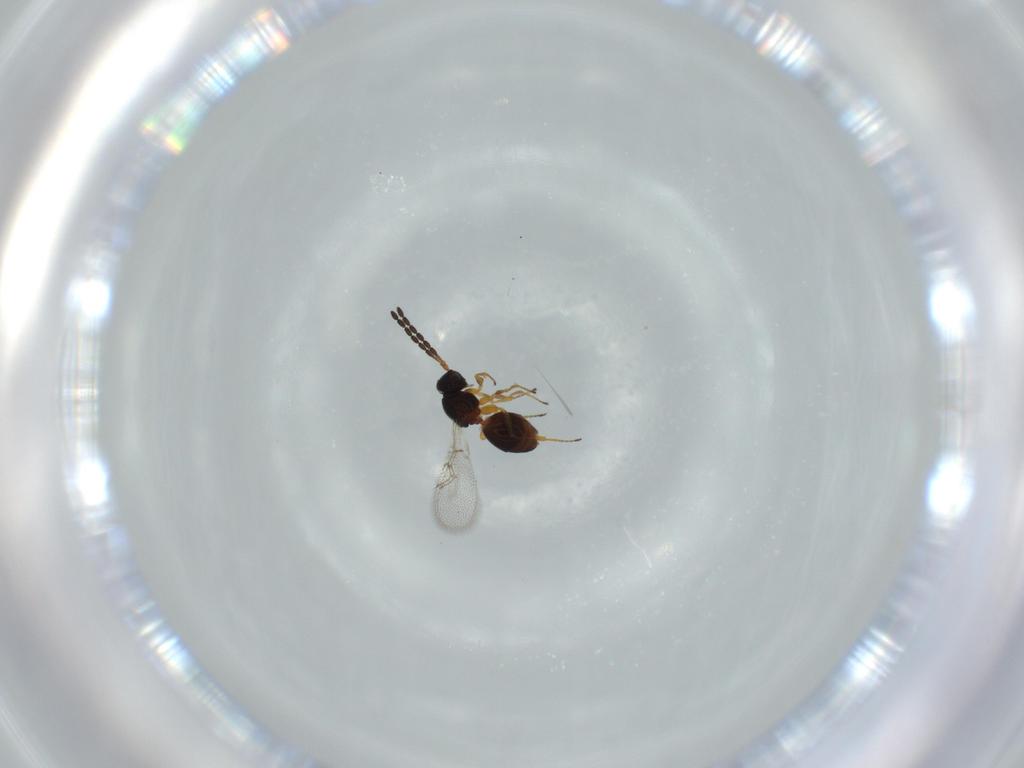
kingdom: Animalia
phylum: Arthropoda
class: Insecta
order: Hymenoptera
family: Figitidae
